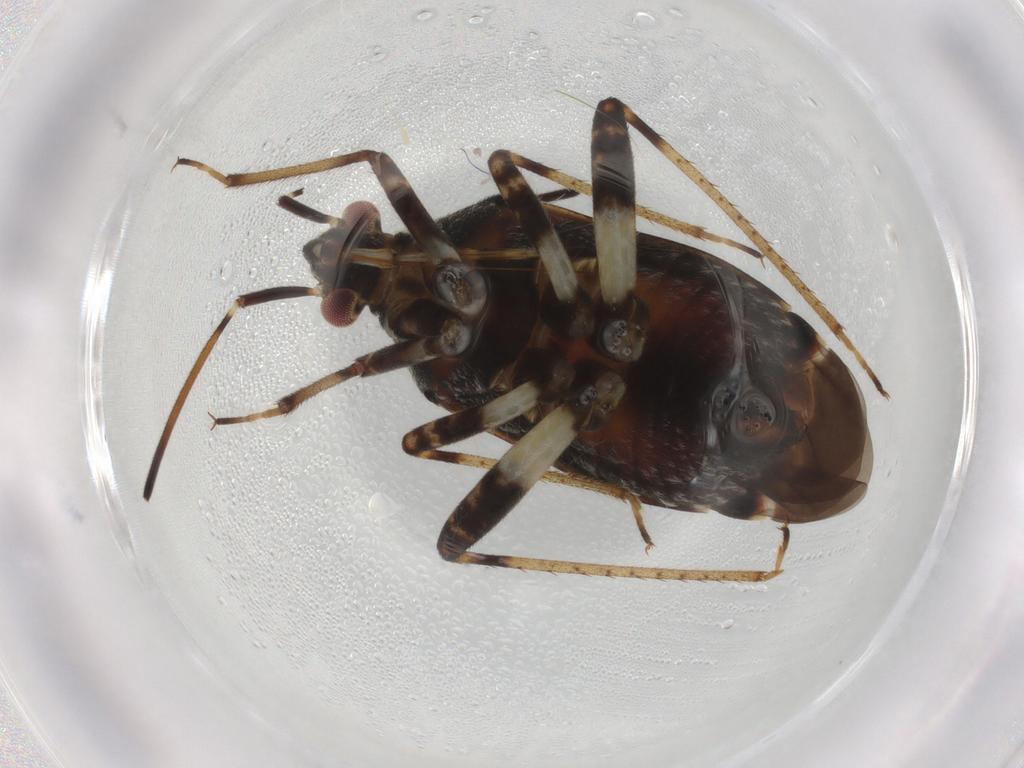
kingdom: Animalia
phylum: Arthropoda
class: Insecta
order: Hemiptera
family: Miridae
